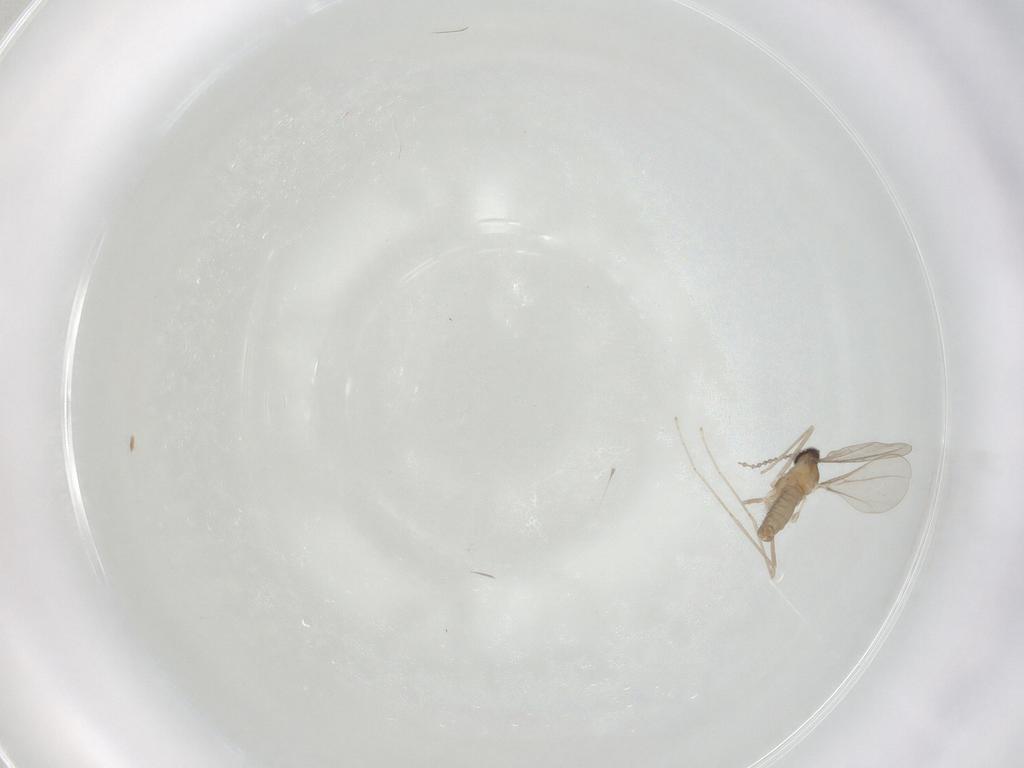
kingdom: Animalia
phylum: Arthropoda
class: Insecta
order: Diptera
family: Cecidomyiidae
